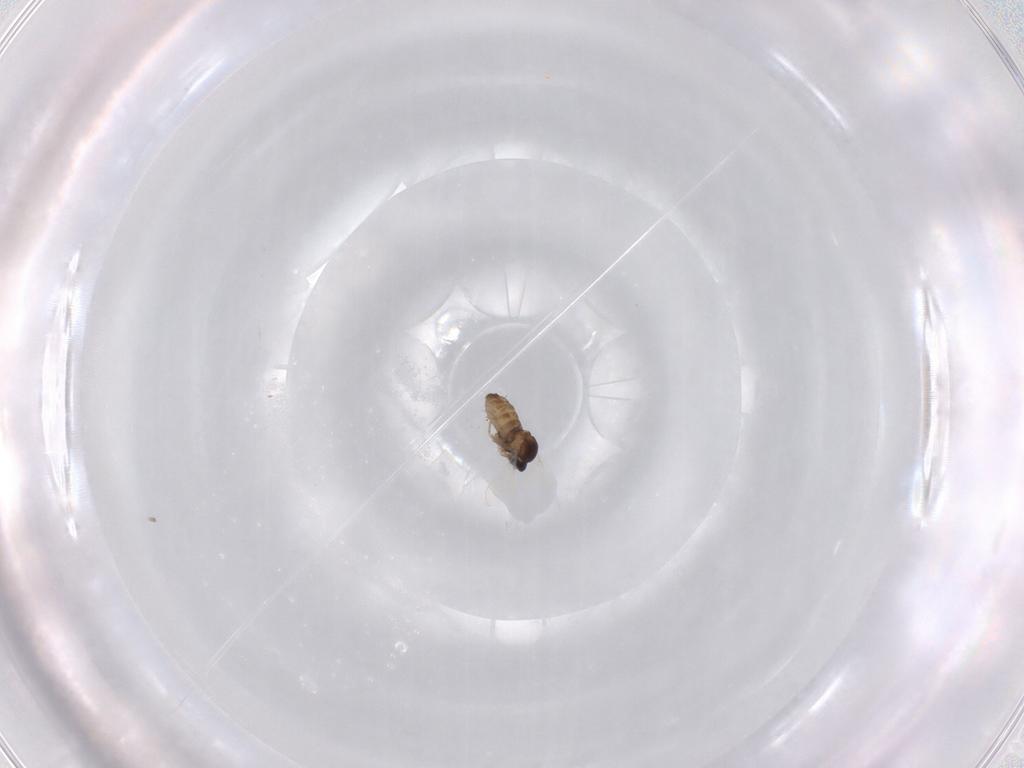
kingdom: Animalia
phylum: Arthropoda
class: Insecta
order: Diptera
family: Cecidomyiidae
